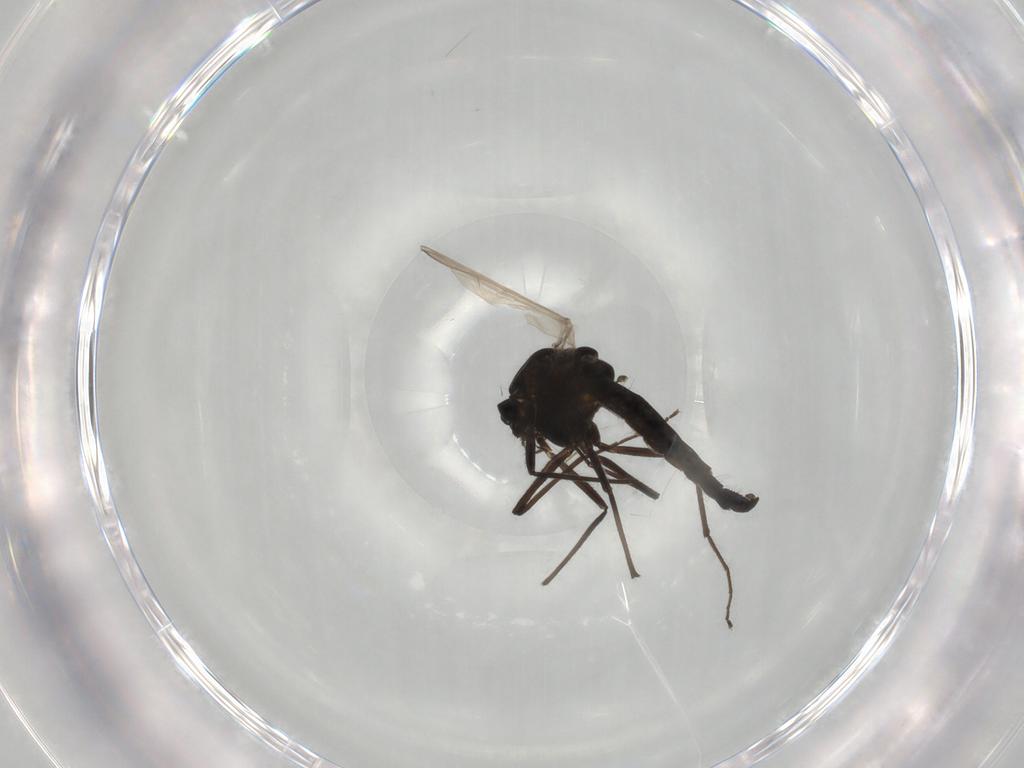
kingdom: Animalia
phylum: Arthropoda
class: Insecta
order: Diptera
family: Chironomidae
